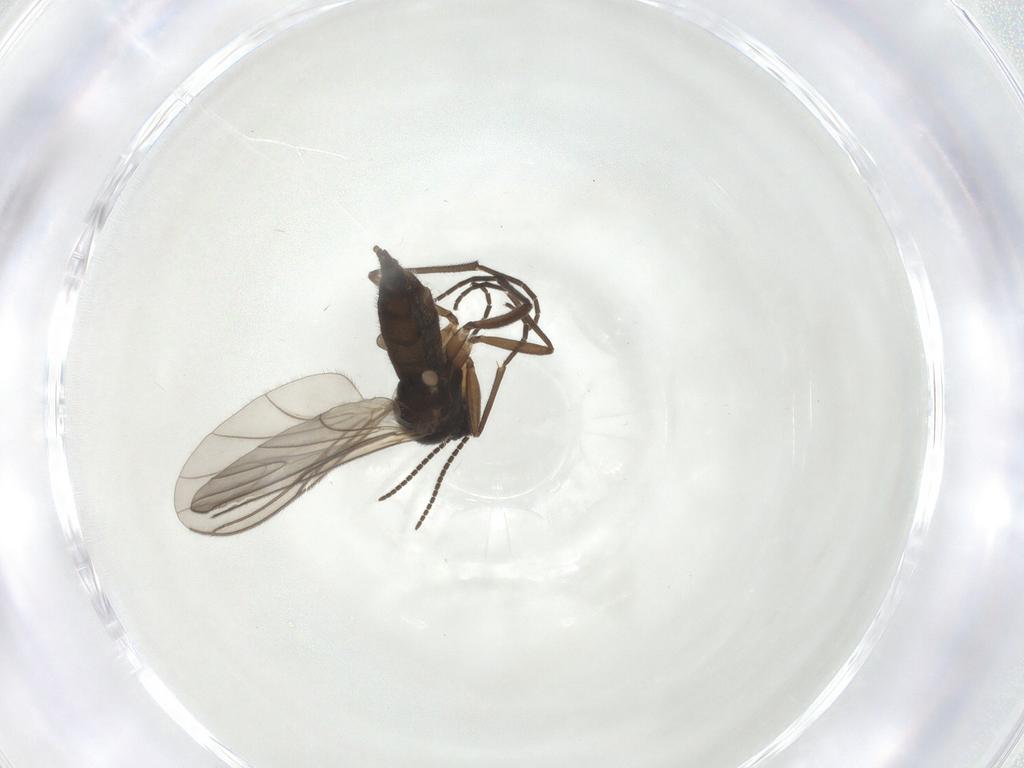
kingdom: Animalia
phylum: Arthropoda
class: Insecta
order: Diptera
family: Sciaridae
